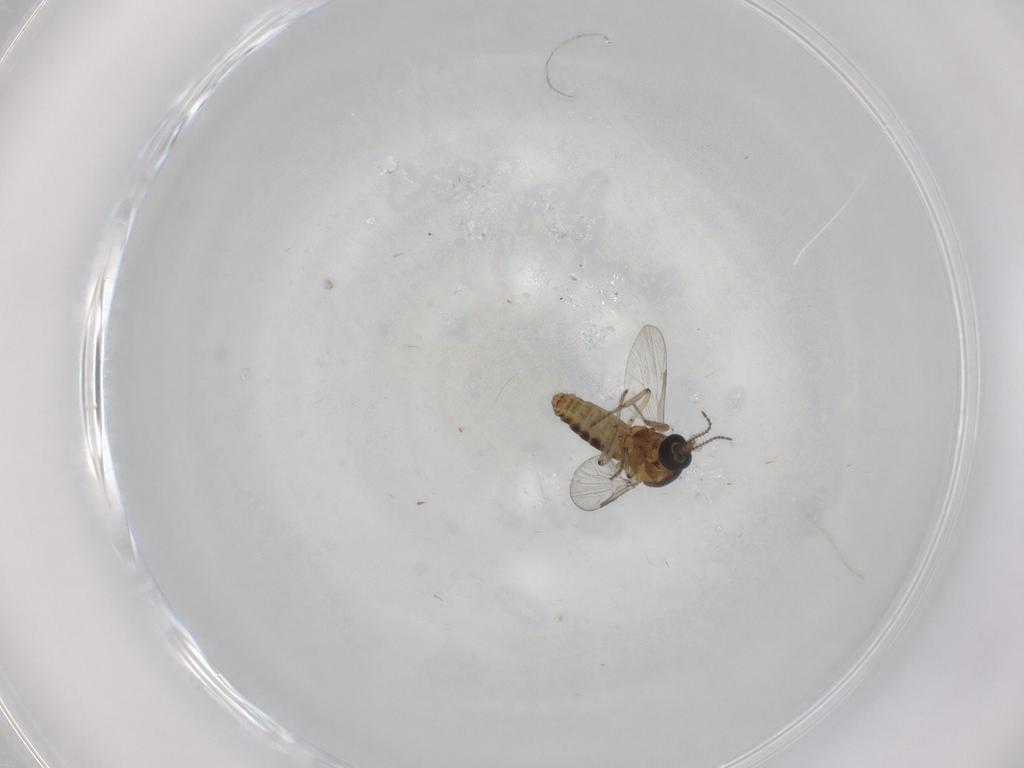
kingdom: Animalia
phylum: Arthropoda
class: Insecta
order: Diptera
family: Ceratopogonidae
